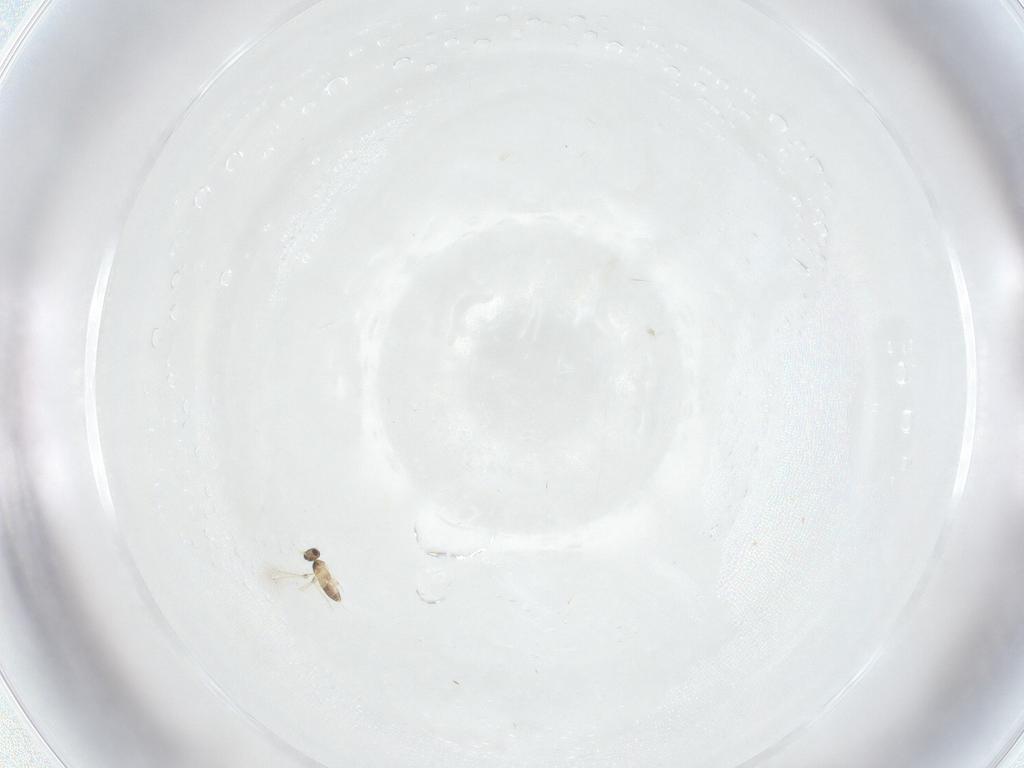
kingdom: Animalia
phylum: Arthropoda
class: Insecta
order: Hymenoptera
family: Mymaridae
